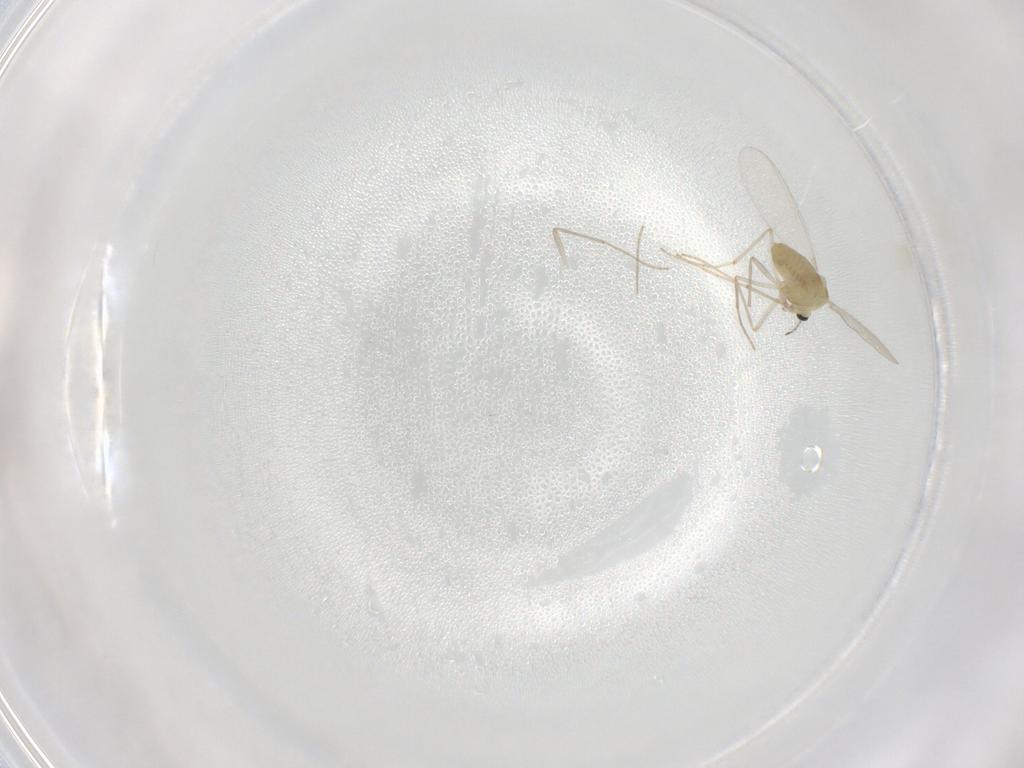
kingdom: Animalia
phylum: Arthropoda
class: Insecta
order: Diptera
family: Chironomidae
